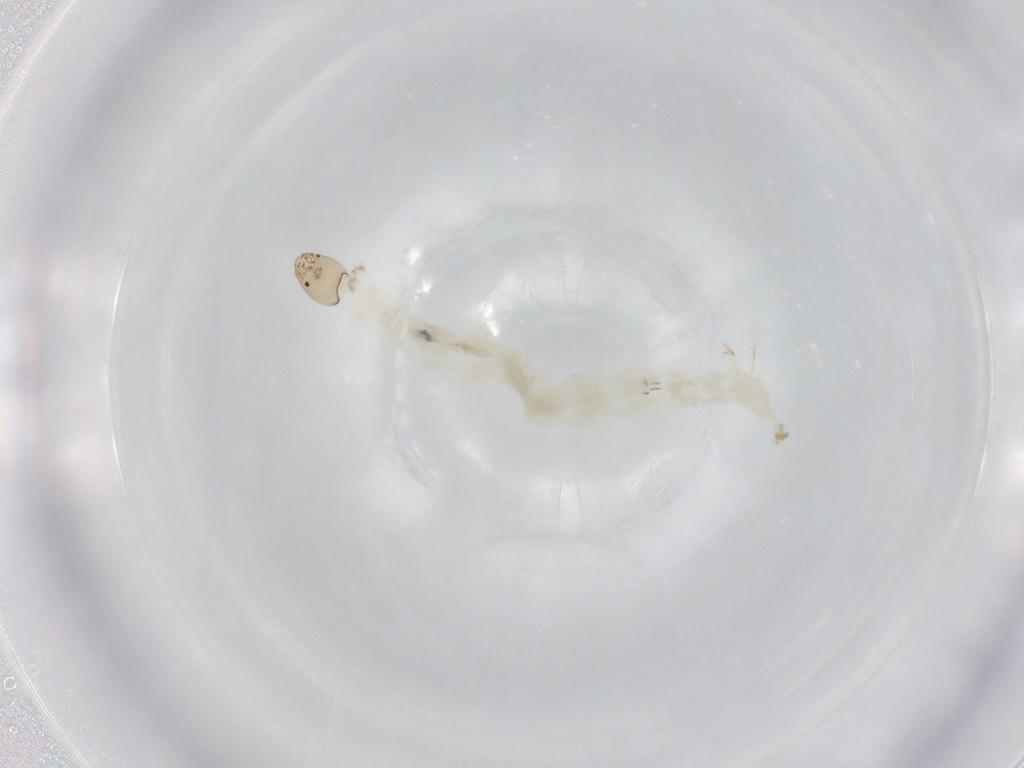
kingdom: Animalia
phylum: Arthropoda
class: Insecta
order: Diptera
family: Chironomidae
